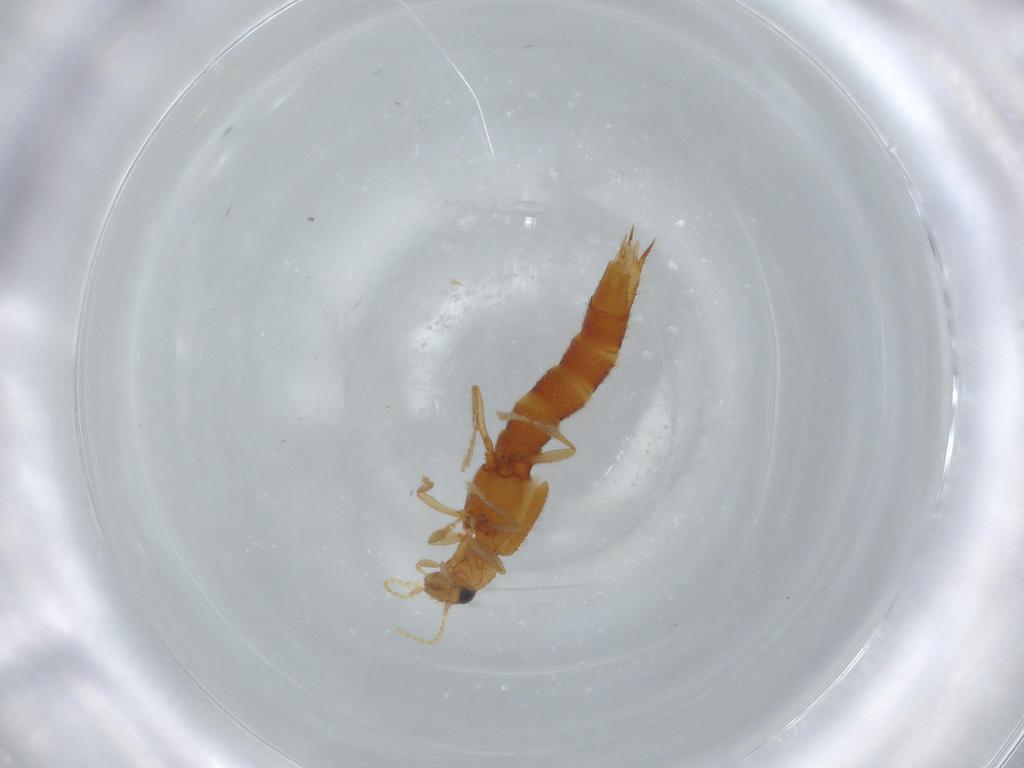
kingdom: Animalia
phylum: Arthropoda
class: Insecta
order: Coleoptera
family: Staphylinidae
